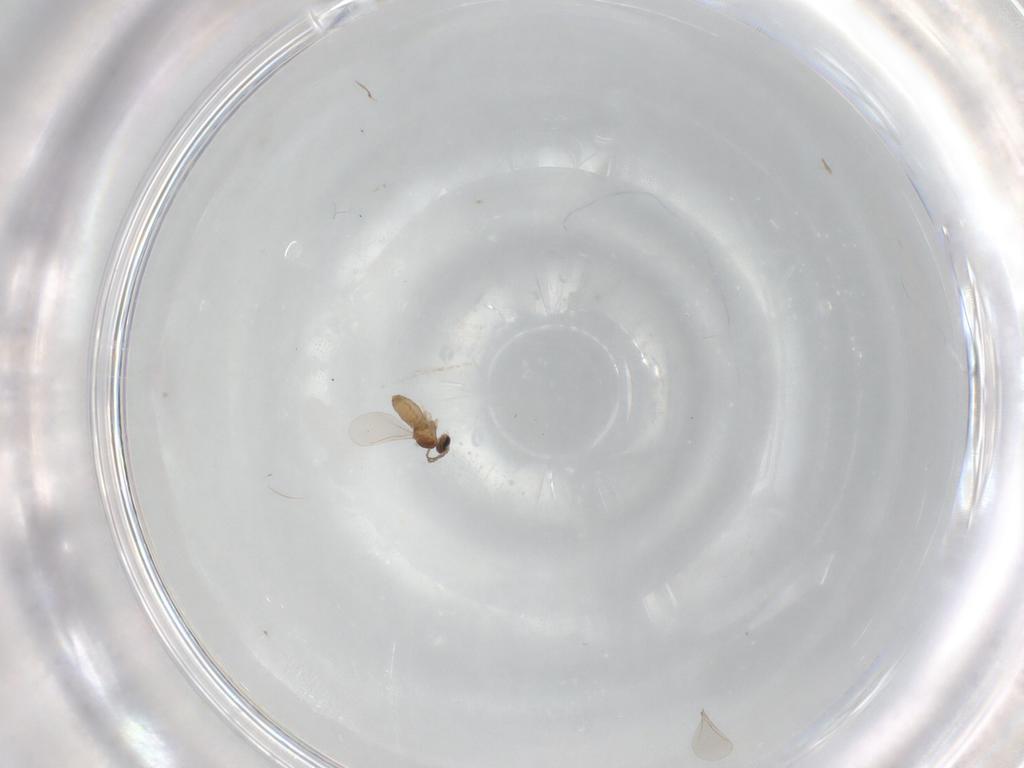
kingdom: Animalia
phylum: Arthropoda
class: Insecta
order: Diptera
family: Cecidomyiidae
